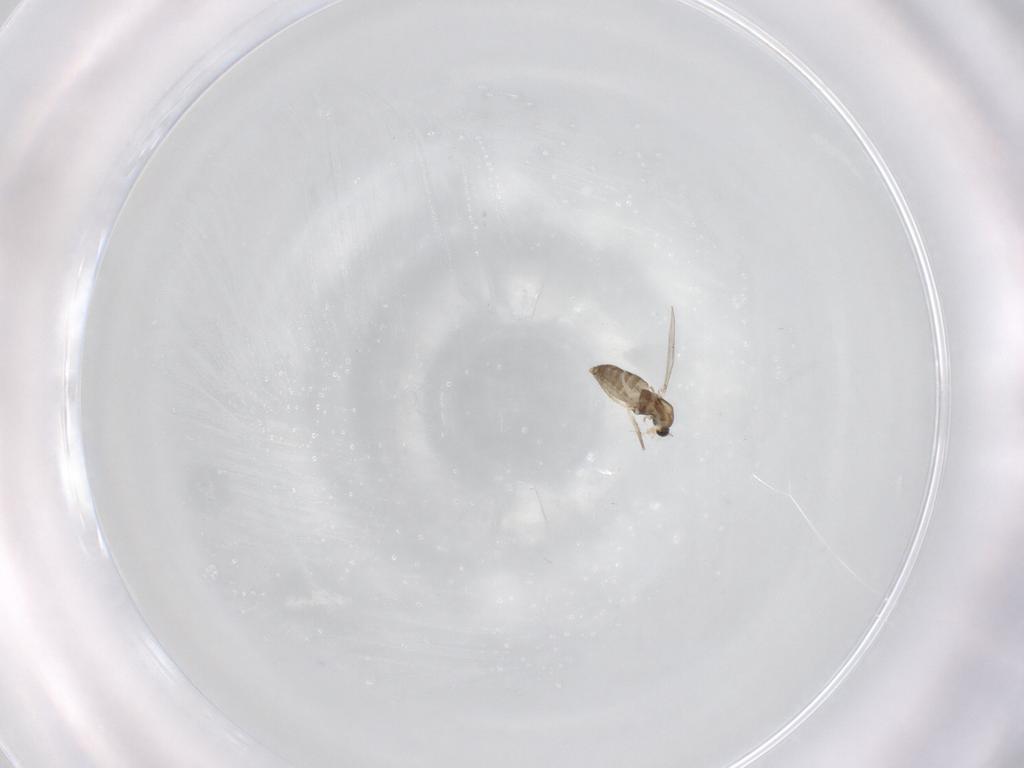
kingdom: Animalia
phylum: Arthropoda
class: Insecta
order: Diptera
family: Chironomidae
